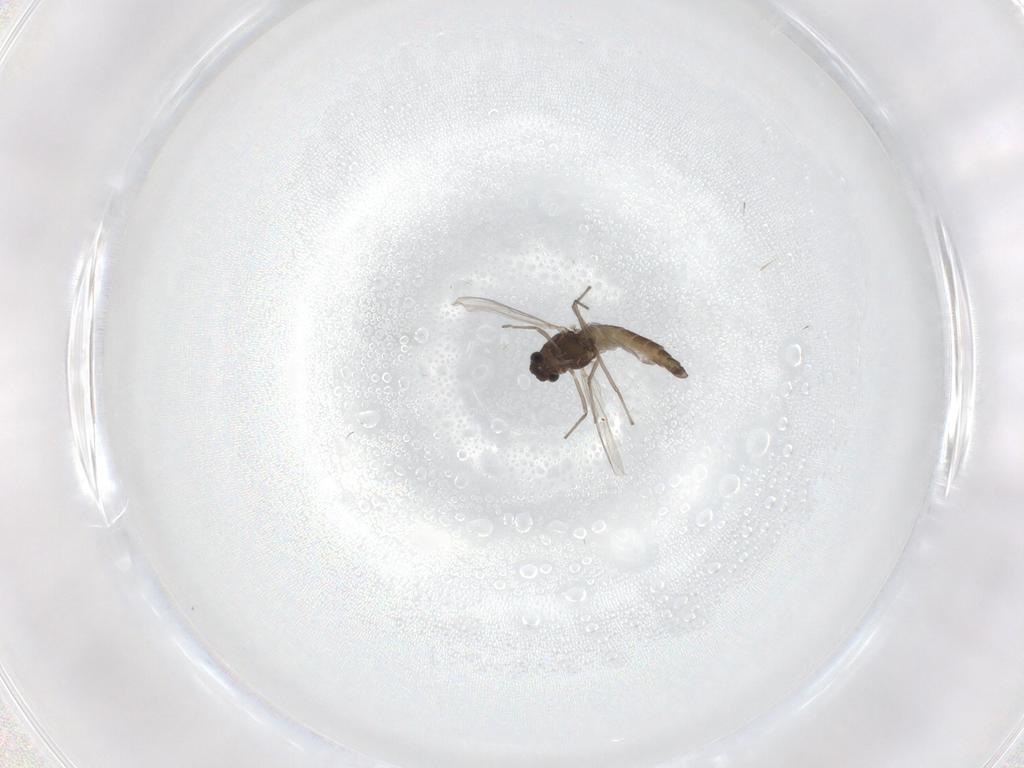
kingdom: Animalia
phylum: Arthropoda
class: Insecta
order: Diptera
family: Chironomidae
